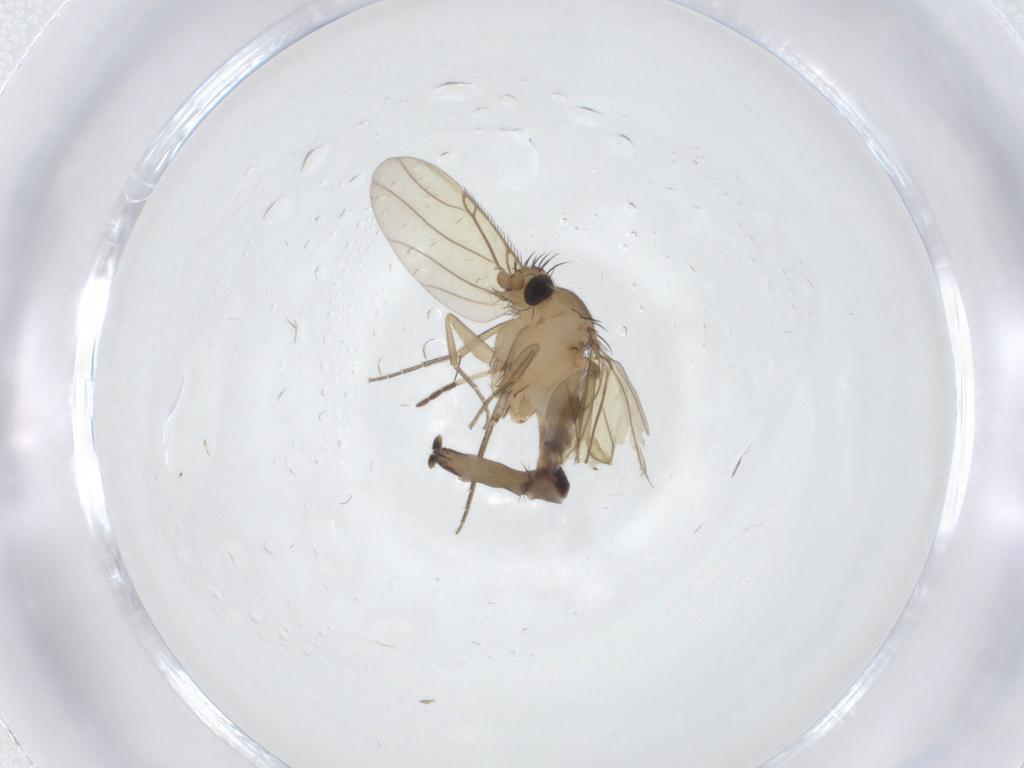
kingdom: Animalia
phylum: Arthropoda
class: Insecta
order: Diptera
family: Phoridae
